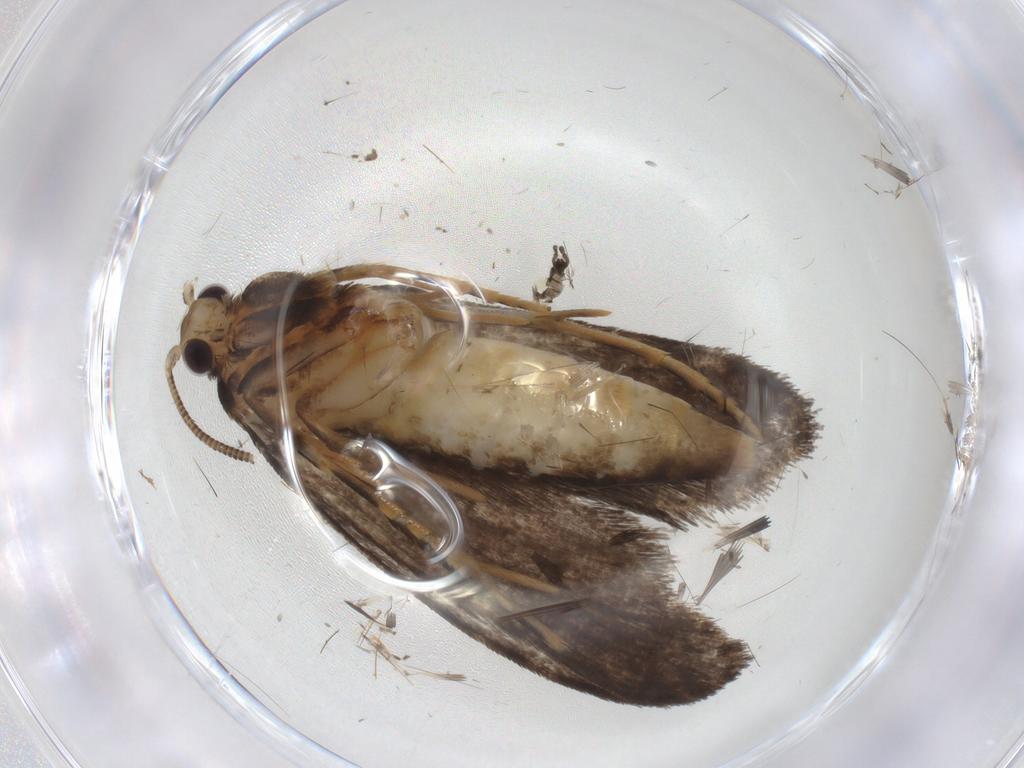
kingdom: Animalia
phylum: Arthropoda
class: Insecta
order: Lepidoptera
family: Tineidae
